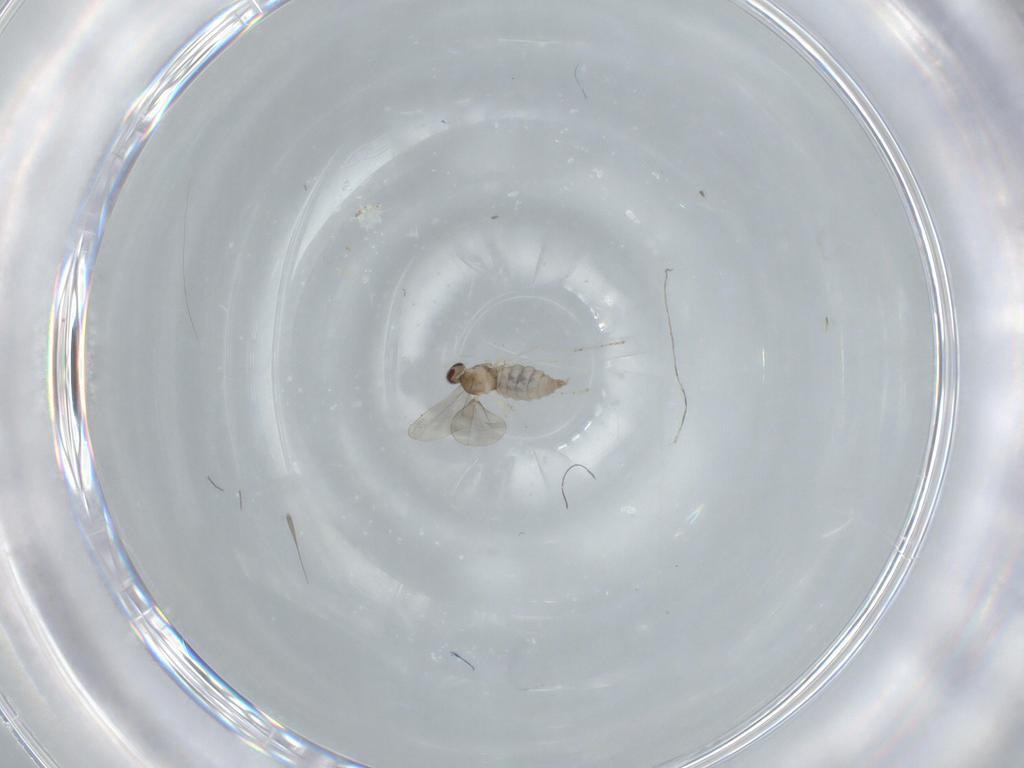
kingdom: Animalia
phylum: Arthropoda
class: Insecta
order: Diptera
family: Cecidomyiidae
